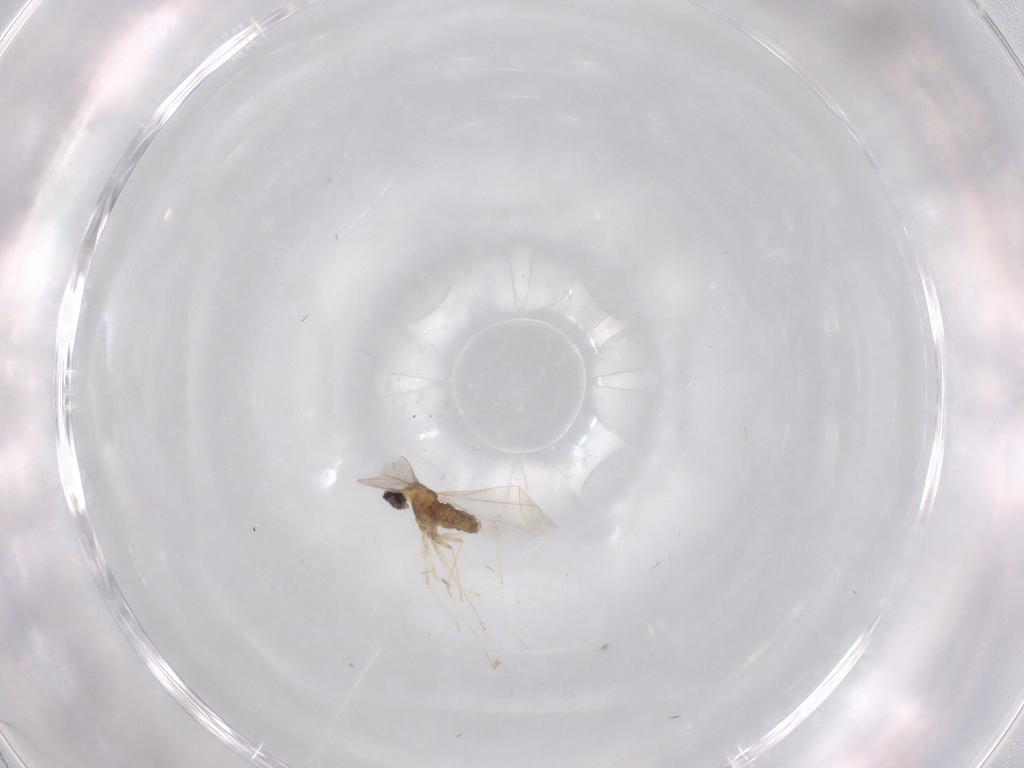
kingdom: Animalia
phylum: Arthropoda
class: Insecta
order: Diptera
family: Cecidomyiidae
